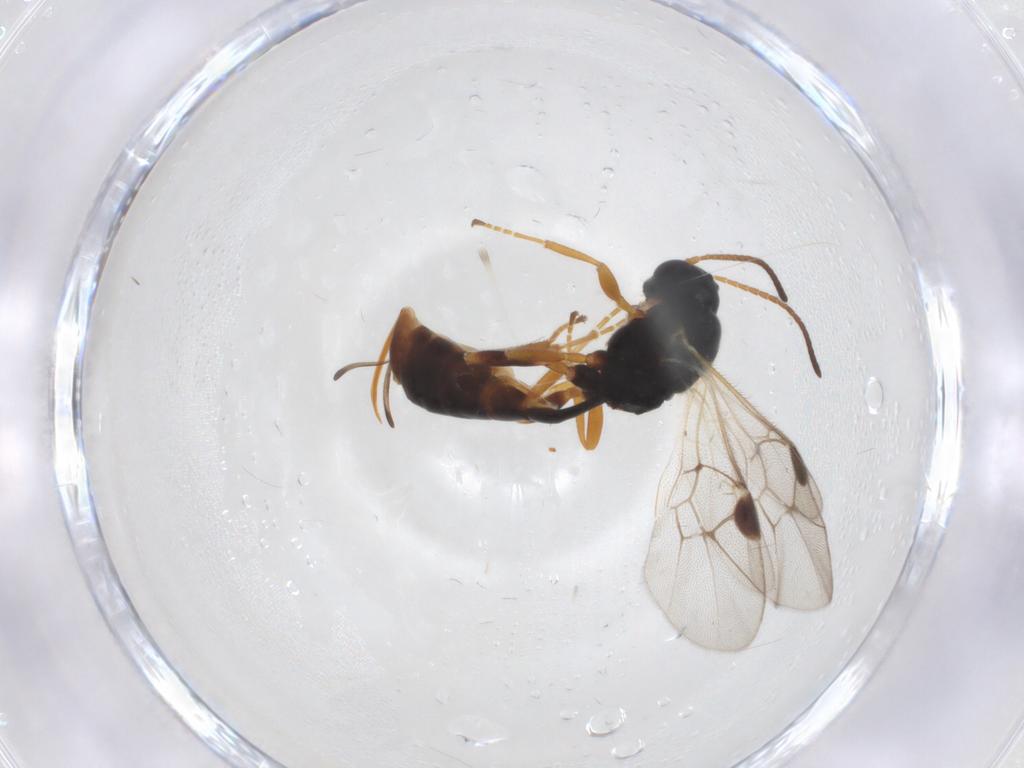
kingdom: Animalia
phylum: Arthropoda
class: Insecta
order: Hymenoptera
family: Ichneumonidae
